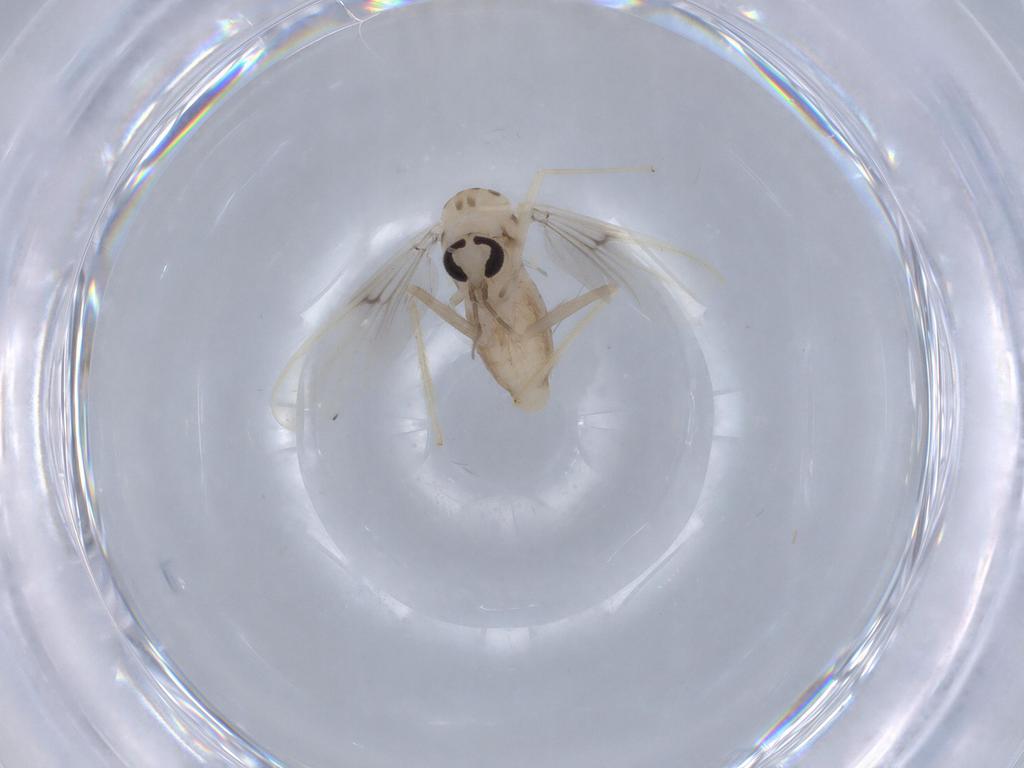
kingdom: Animalia
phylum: Arthropoda
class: Insecta
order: Diptera
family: Chironomidae
